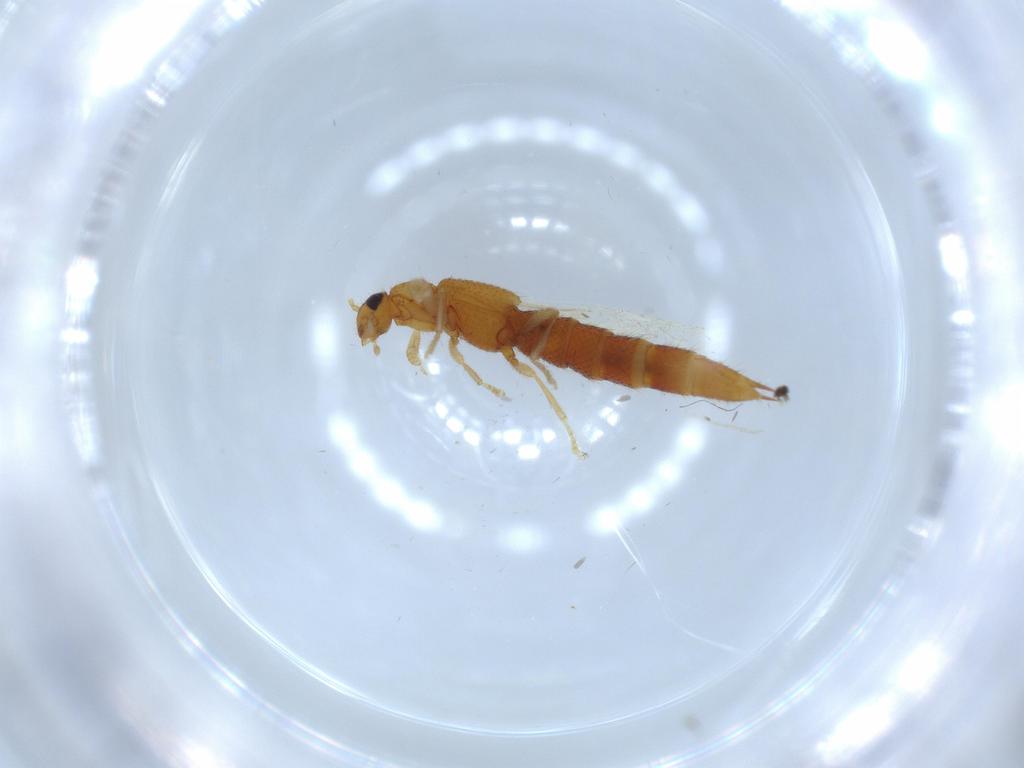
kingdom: Animalia
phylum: Arthropoda
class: Insecta
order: Coleoptera
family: Staphylinidae
